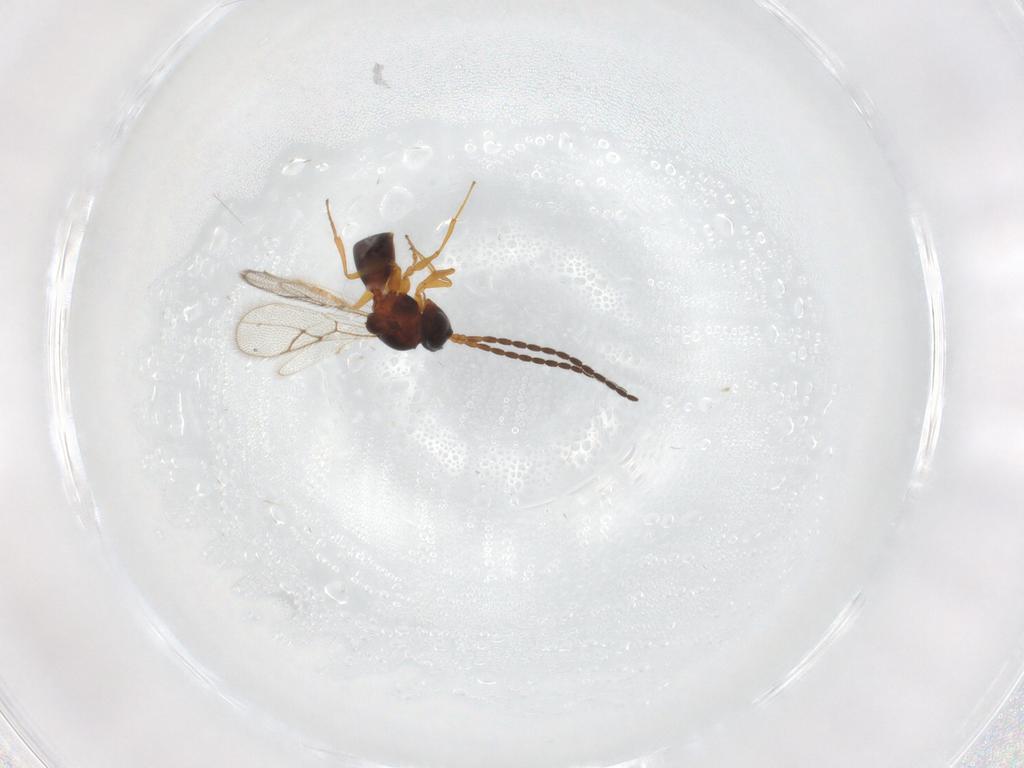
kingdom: Animalia
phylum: Arthropoda
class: Insecta
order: Hymenoptera
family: Figitidae
